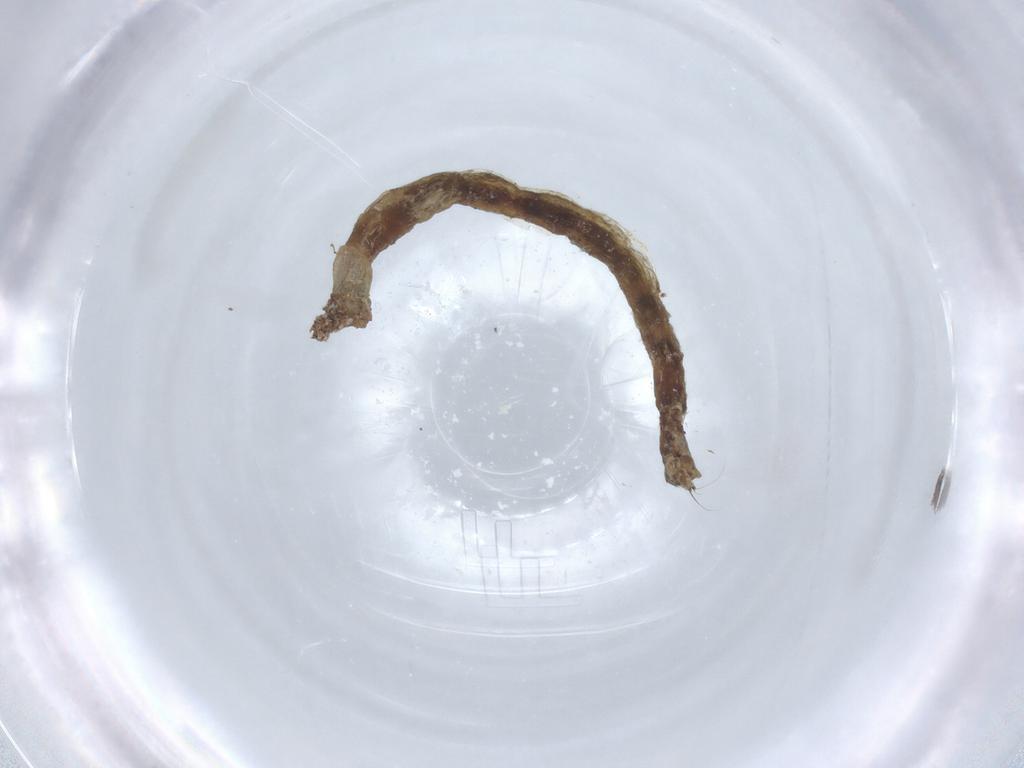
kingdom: Animalia
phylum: Arthropoda
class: Insecta
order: Diptera
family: Chironomidae
